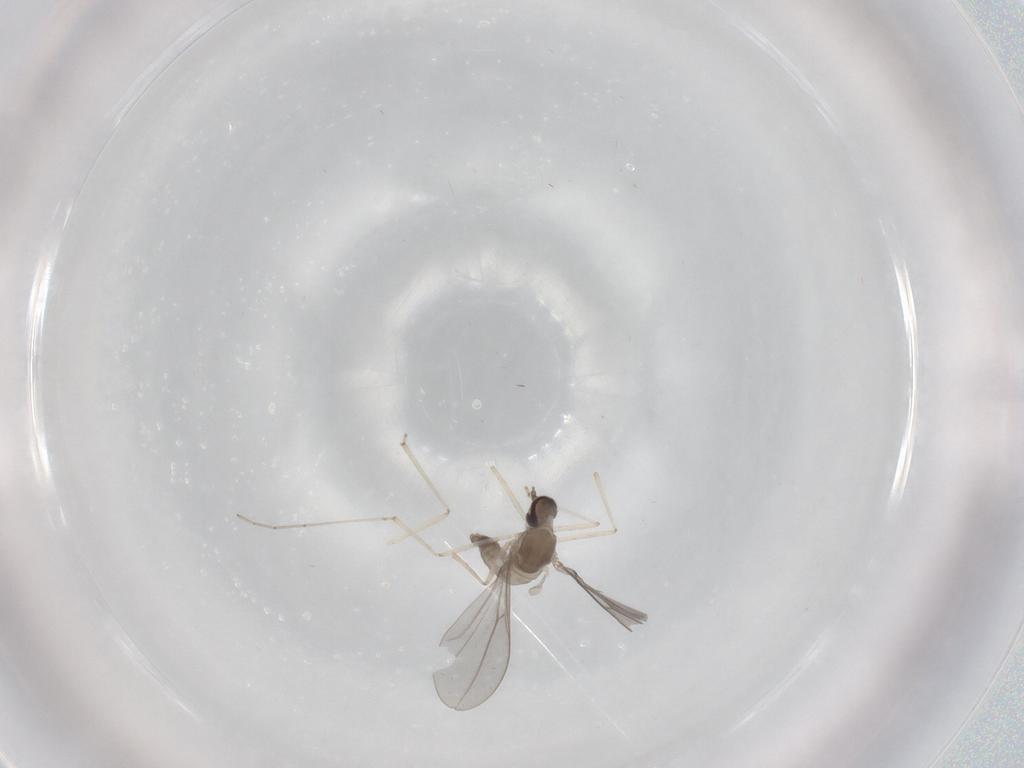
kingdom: Animalia
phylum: Arthropoda
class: Insecta
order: Diptera
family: Cecidomyiidae
